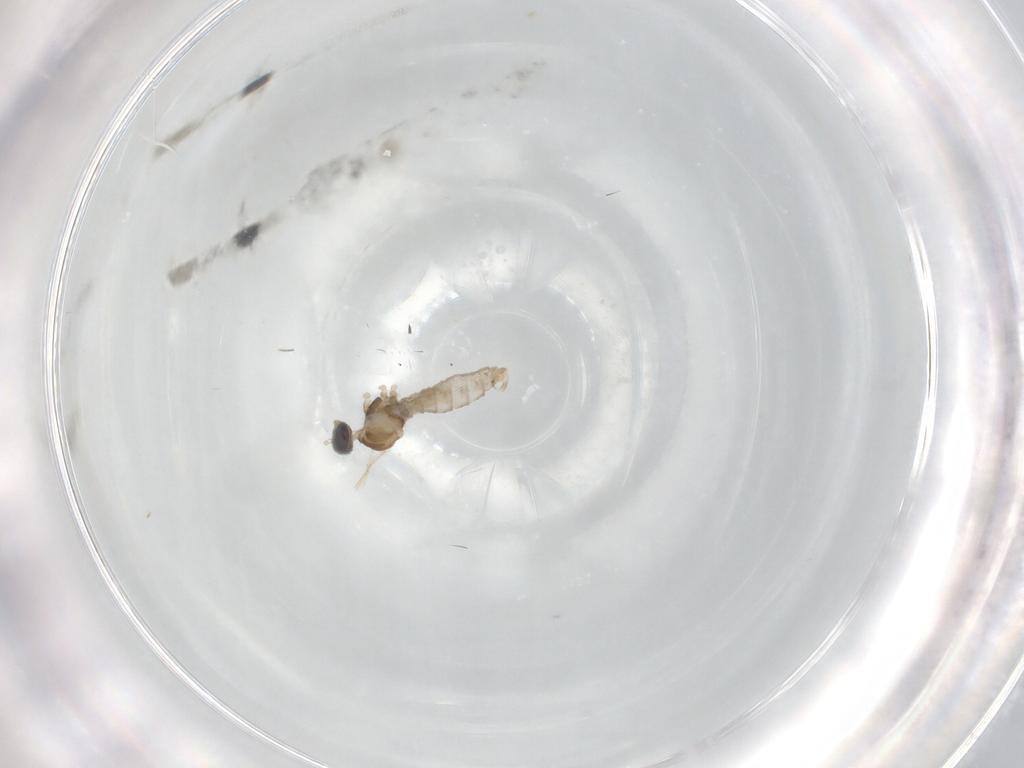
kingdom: Animalia
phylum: Arthropoda
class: Insecta
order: Diptera
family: Cecidomyiidae
